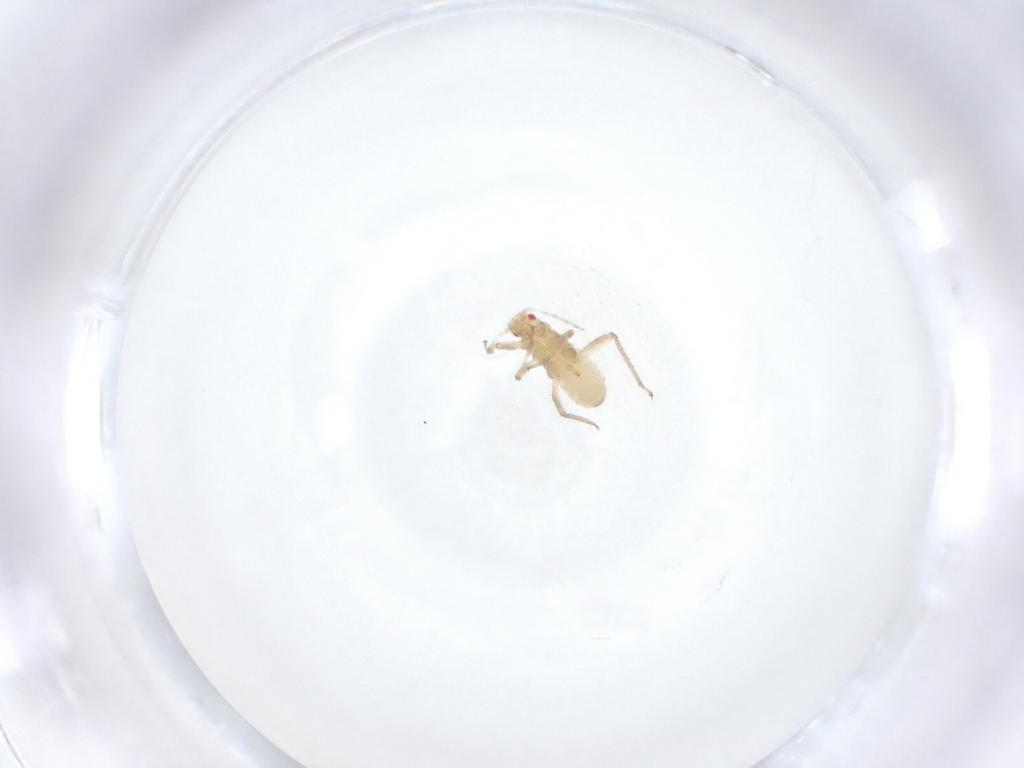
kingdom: Animalia
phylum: Arthropoda
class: Insecta
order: Hemiptera
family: Aphididae
